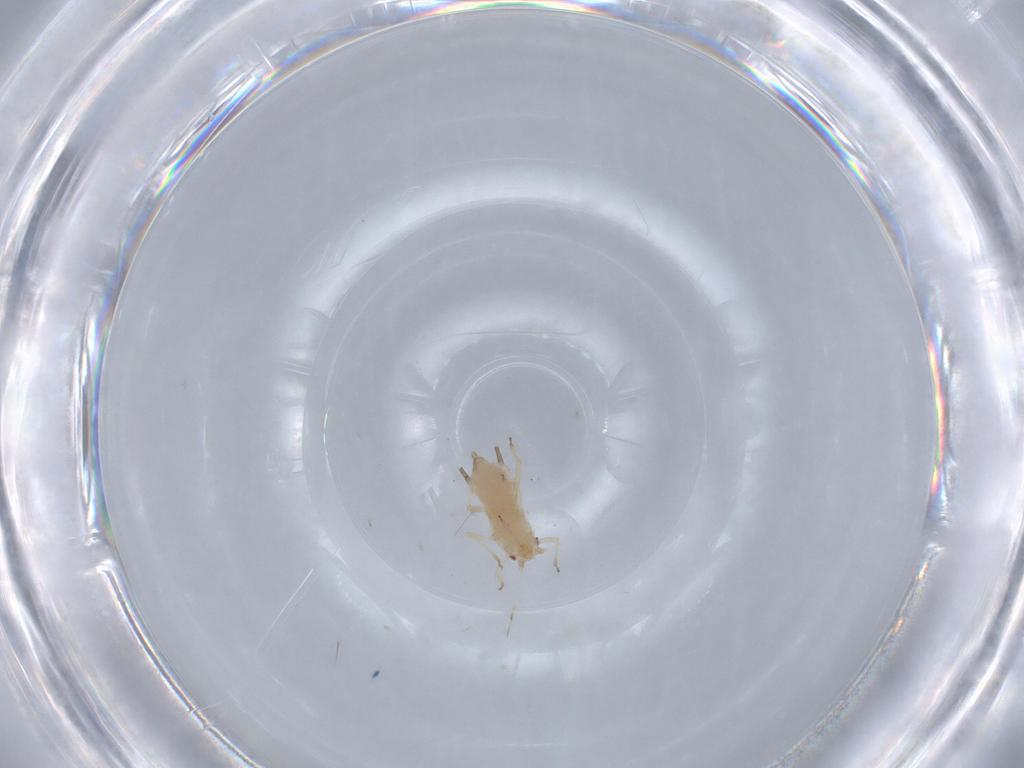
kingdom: Animalia
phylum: Arthropoda
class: Insecta
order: Hemiptera
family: Aphididae
